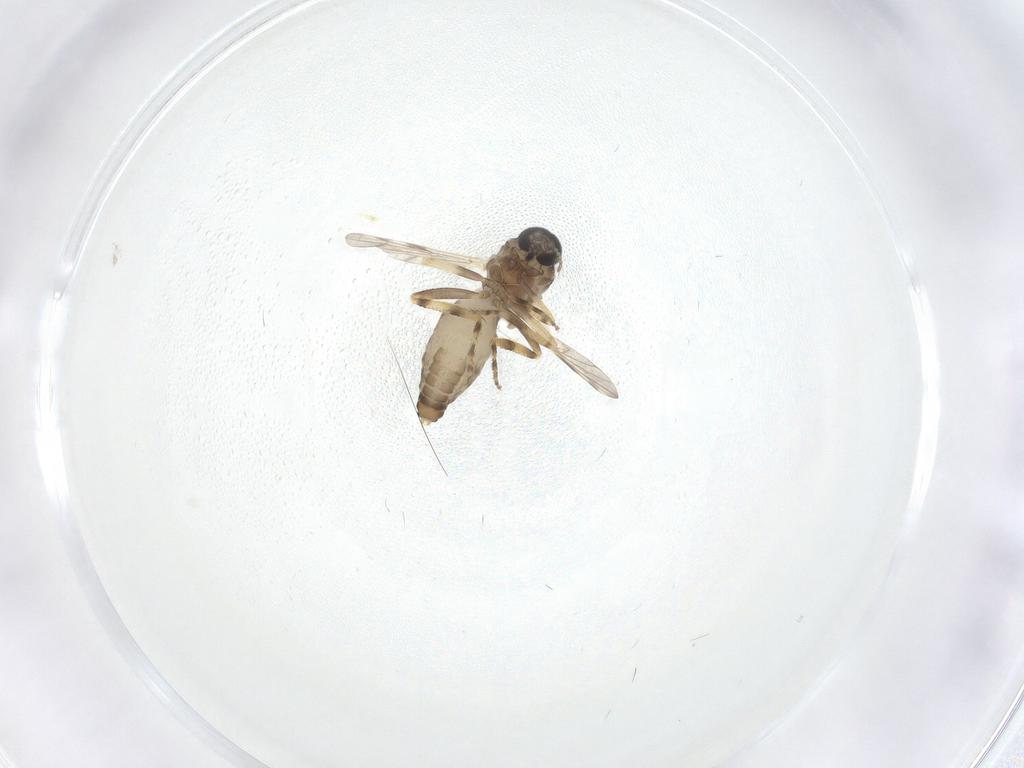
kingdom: Animalia
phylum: Arthropoda
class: Insecta
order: Diptera
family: Ceratopogonidae
